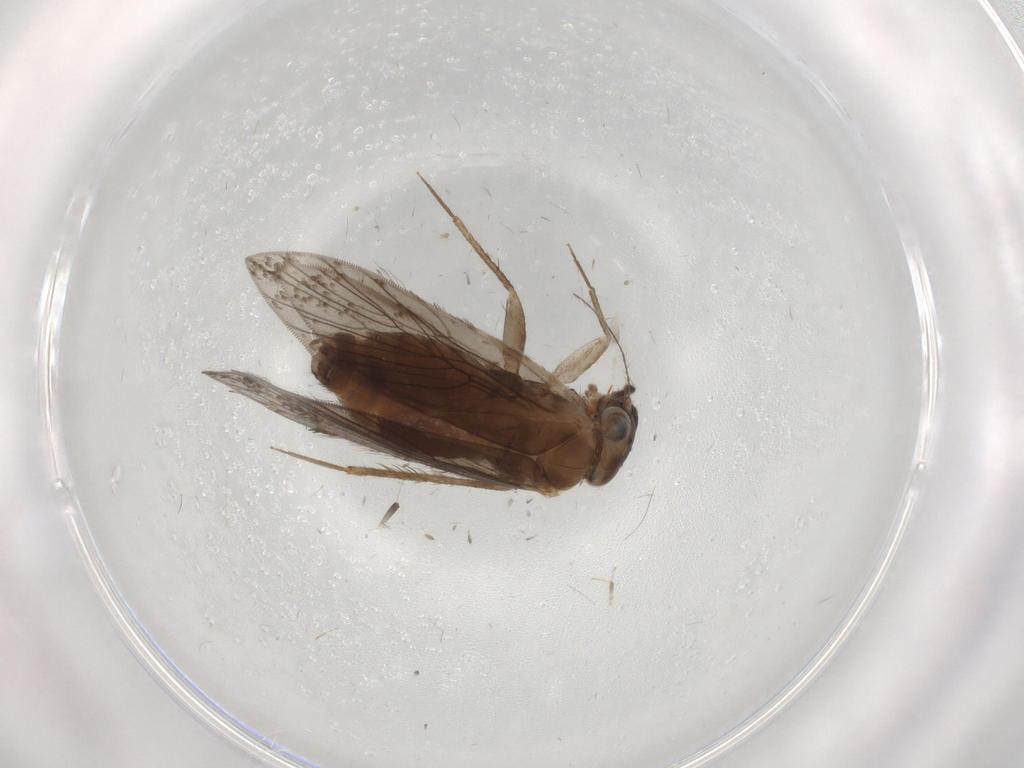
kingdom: Animalia
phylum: Arthropoda
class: Insecta
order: Psocodea
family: Lepidopsocidae
